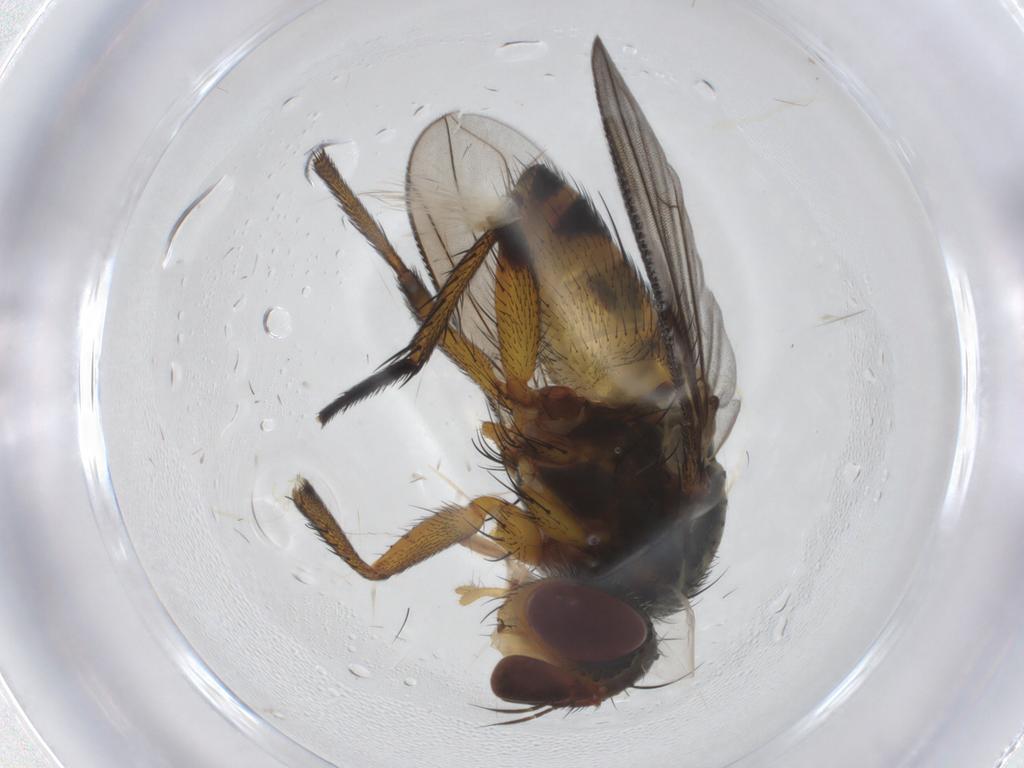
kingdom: Animalia
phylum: Arthropoda
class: Insecta
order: Diptera
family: Tachinidae
